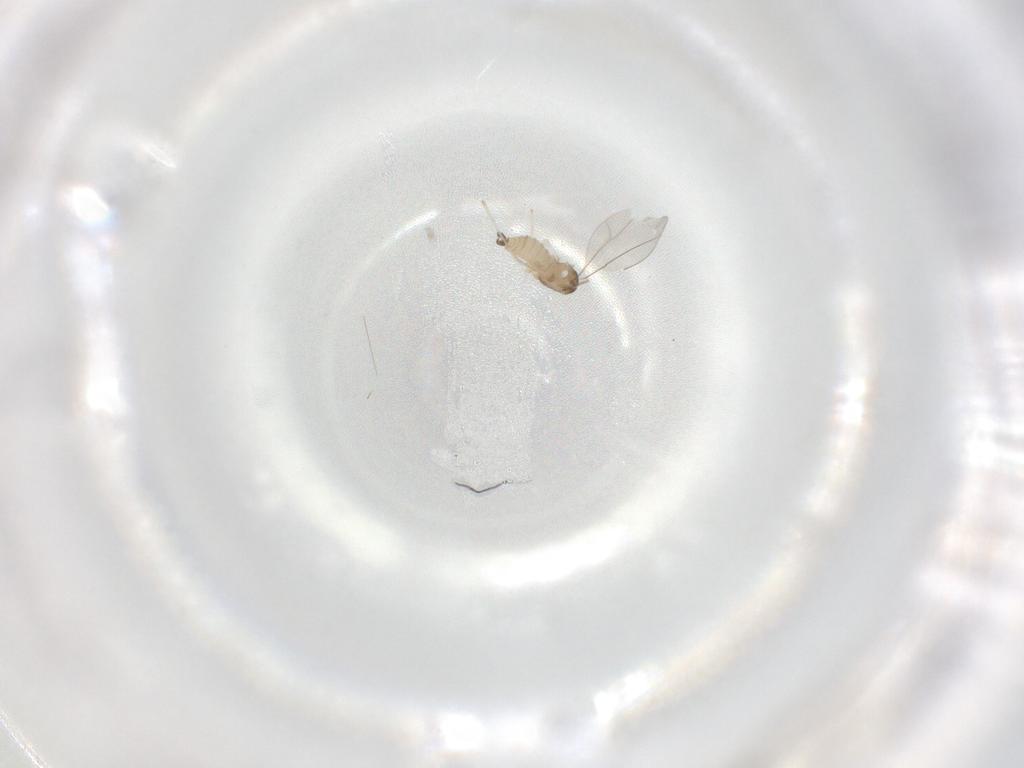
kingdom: Animalia
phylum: Arthropoda
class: Insecta
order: Diptera
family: Cecidomyiidae
